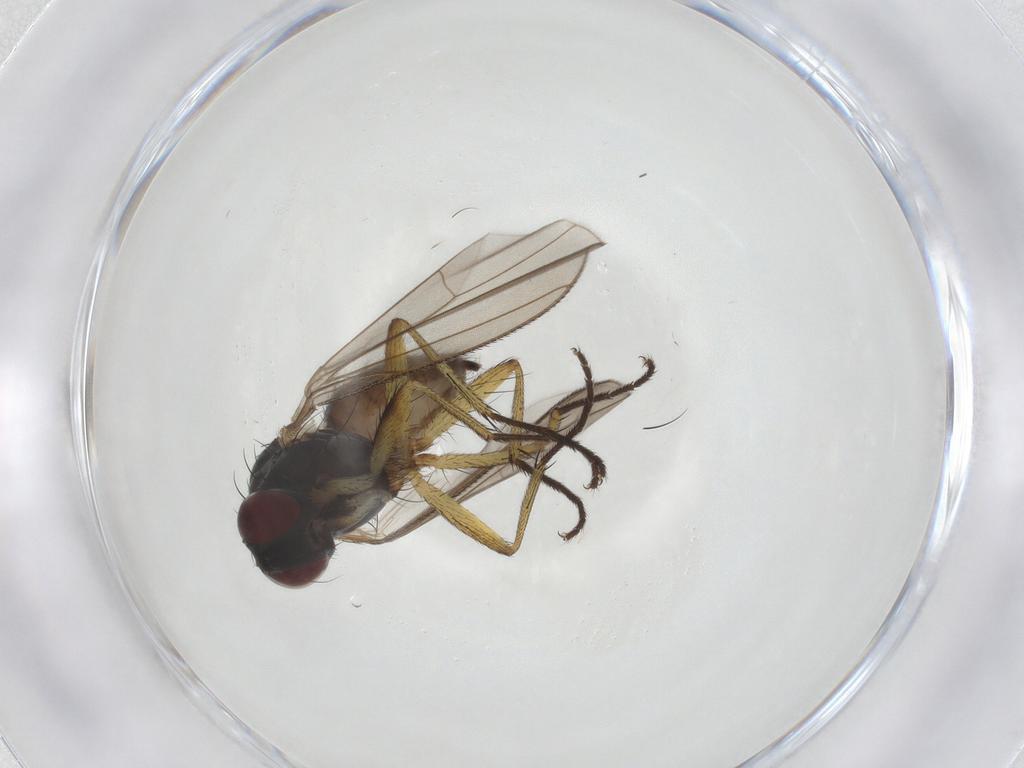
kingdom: Animalia
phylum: Arthropoda
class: Insecta
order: Diptera
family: Muscidae
